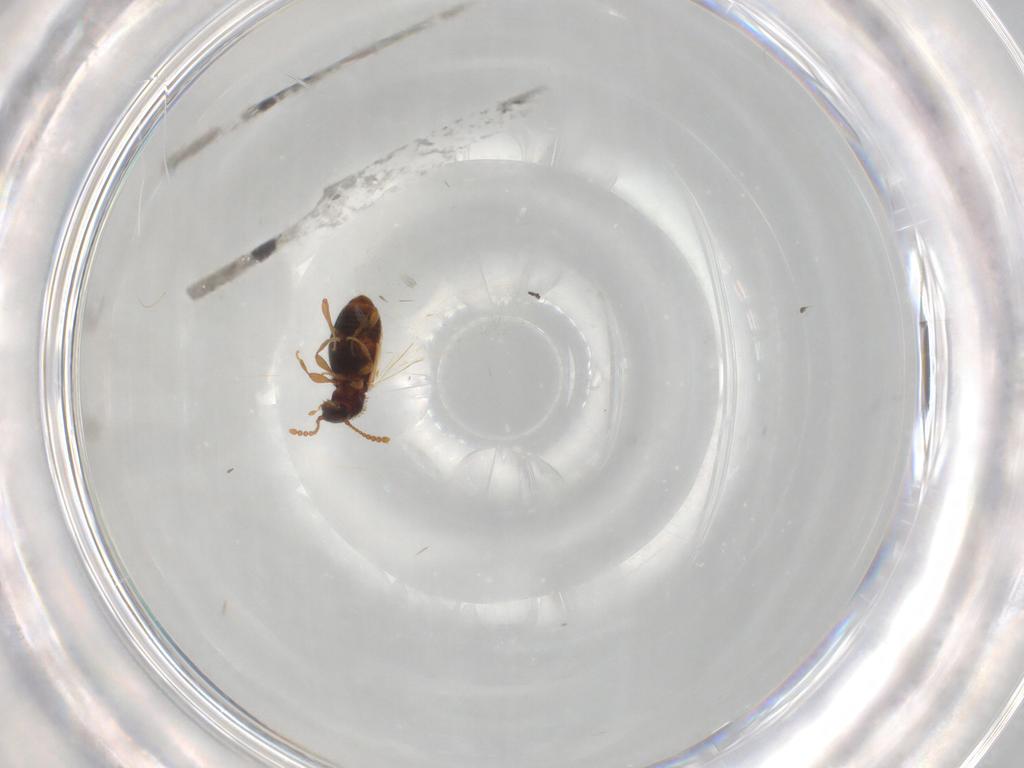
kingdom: Animalia
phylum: Arthropoda
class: Insecta
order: Coleoptera
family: Staphylinidae
